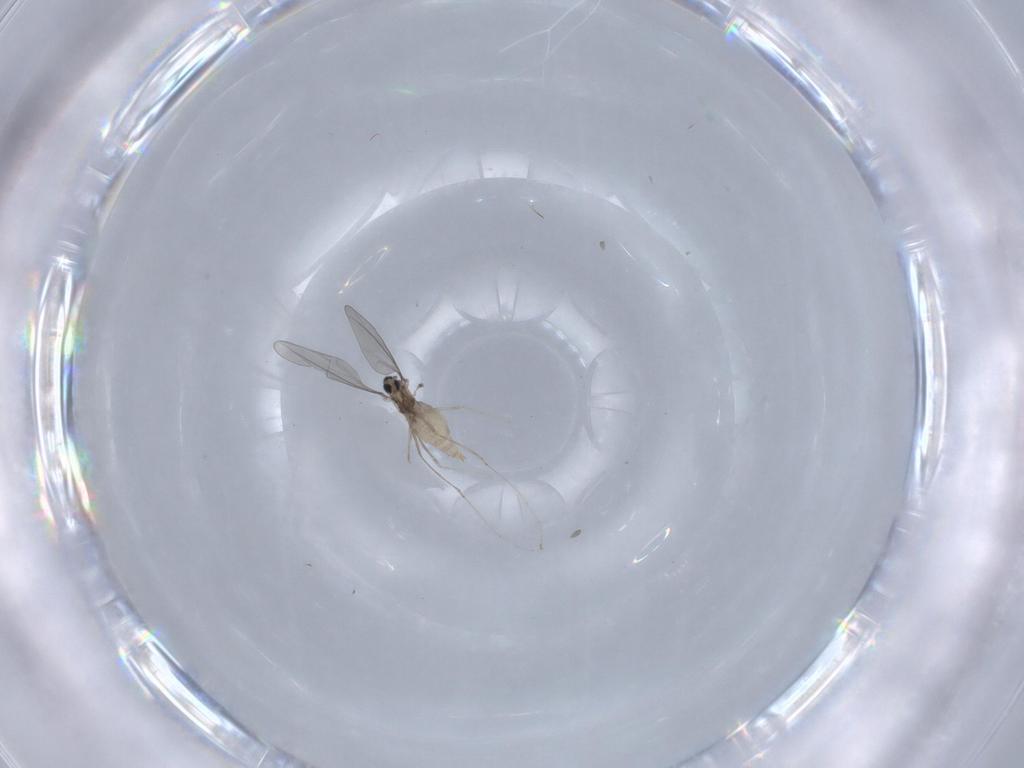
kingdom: Animalia
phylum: Arthropoda
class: Insecta
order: Diptera
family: Cecidomyiidae
